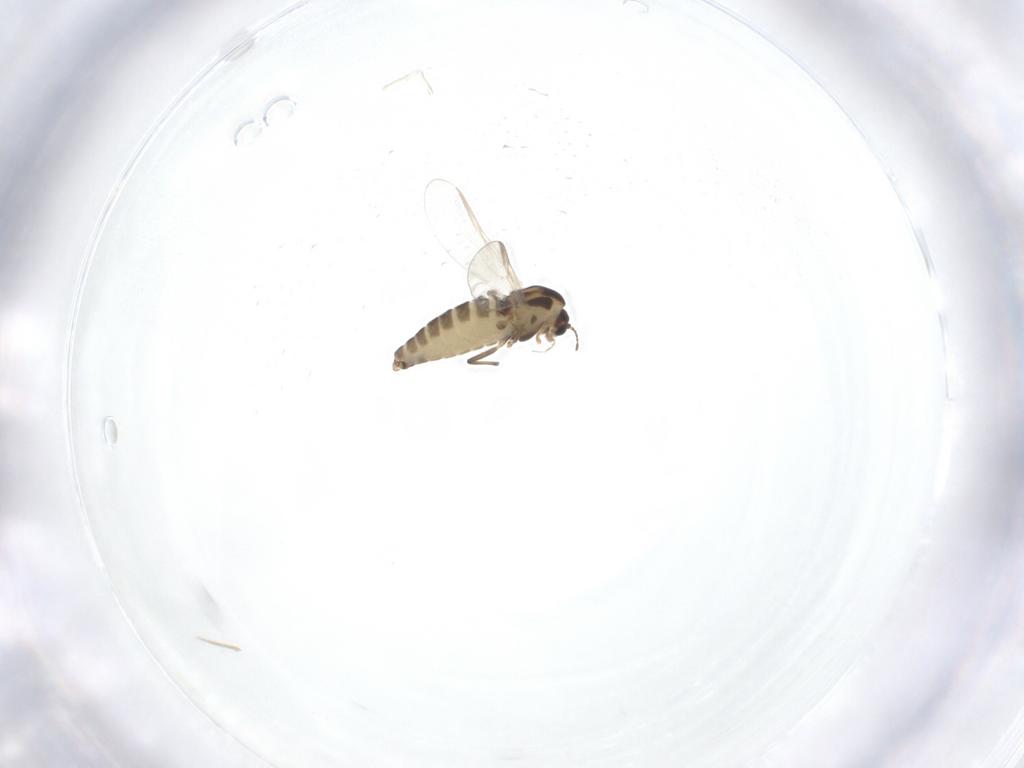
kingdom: Animalia
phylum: Arthropoda
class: Insecta
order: Diptera
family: Chironomidae
